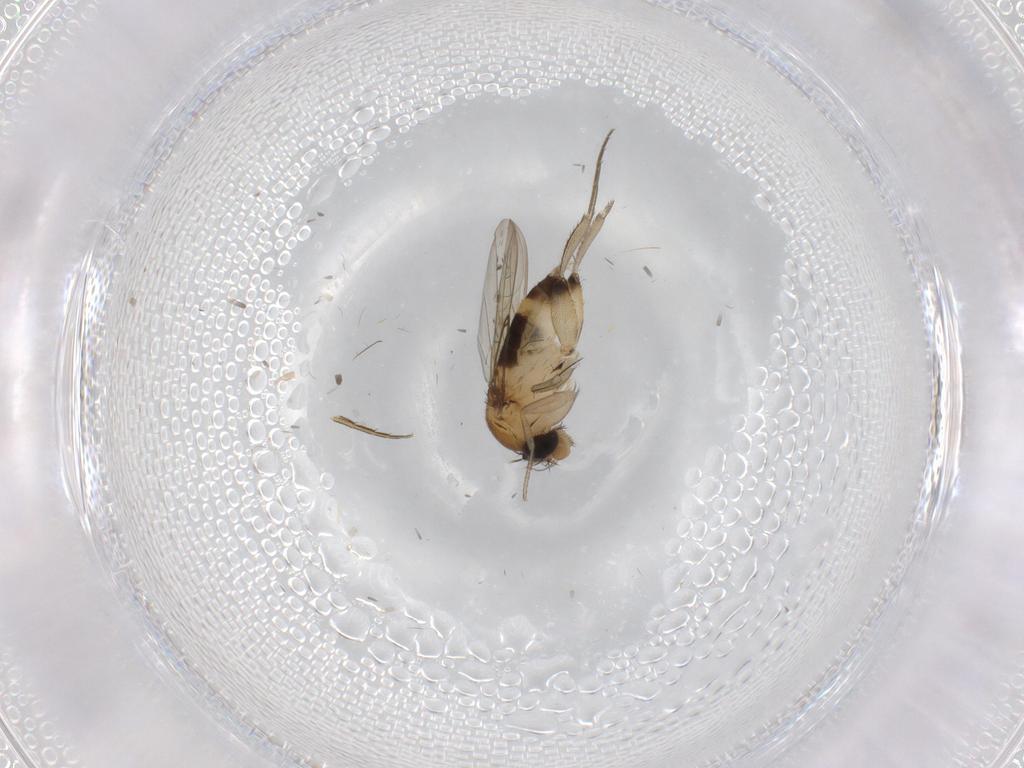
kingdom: Animalia
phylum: Arthropoda
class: Insecta
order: Diptera
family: Phoridae
